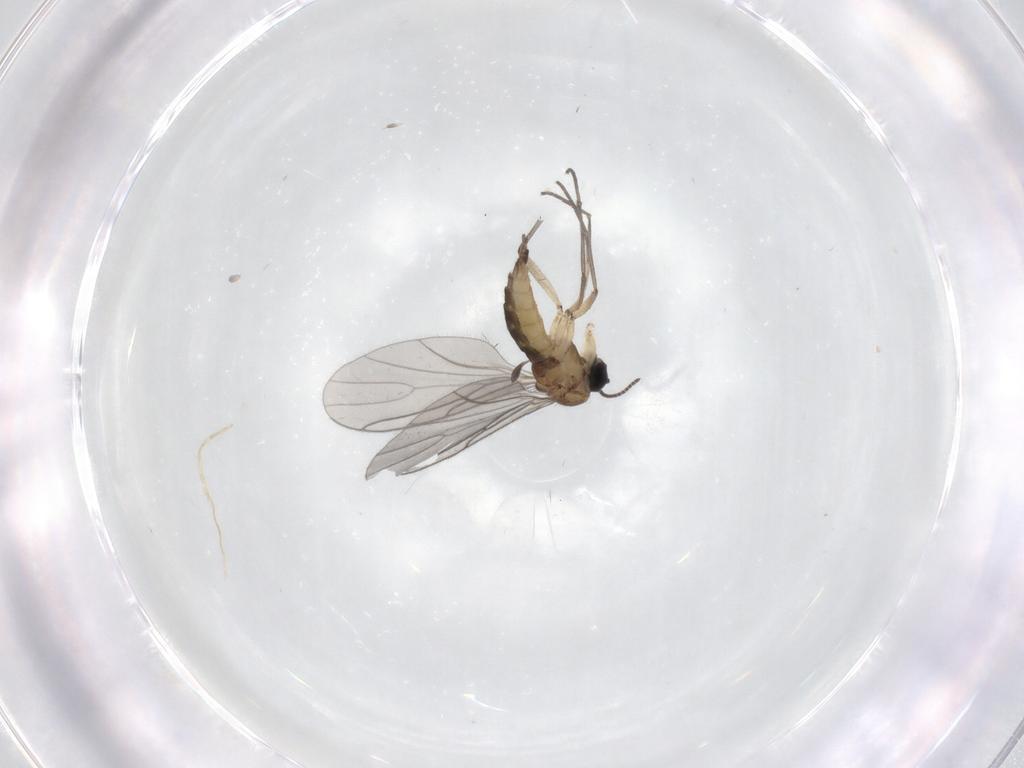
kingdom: Animalia
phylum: Arthropoda
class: Insecta
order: Diptera
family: Sciaridae
